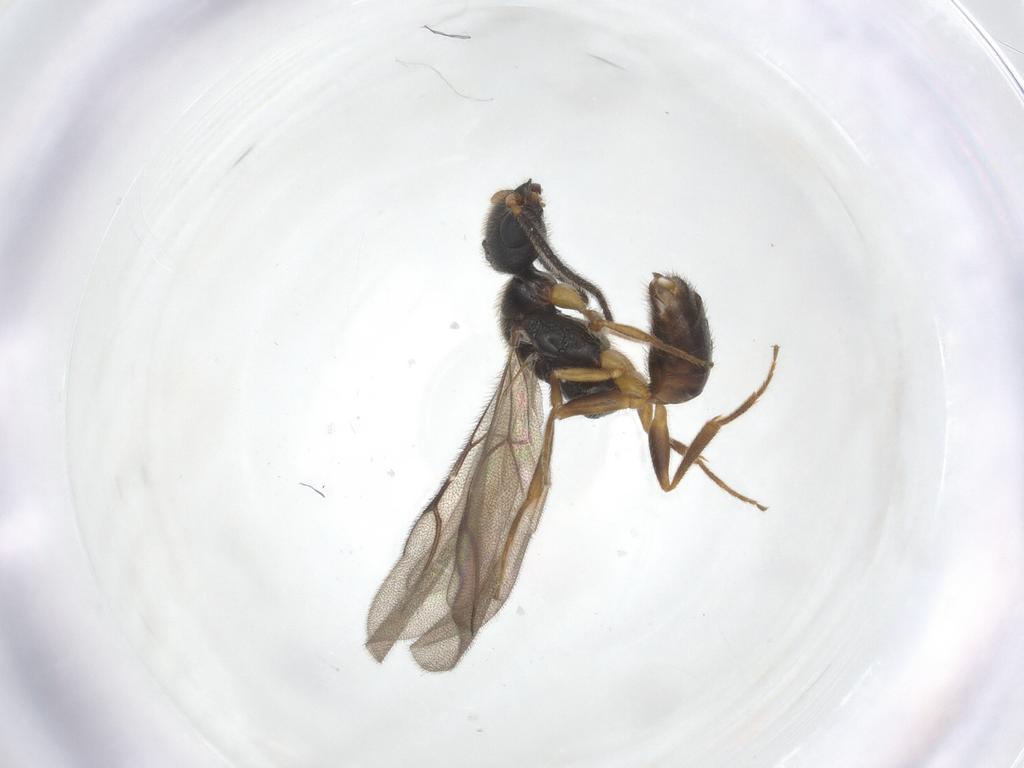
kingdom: Animalia
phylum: Arthropoda
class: Insecta
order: Hymenoptera
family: Bethylidae
